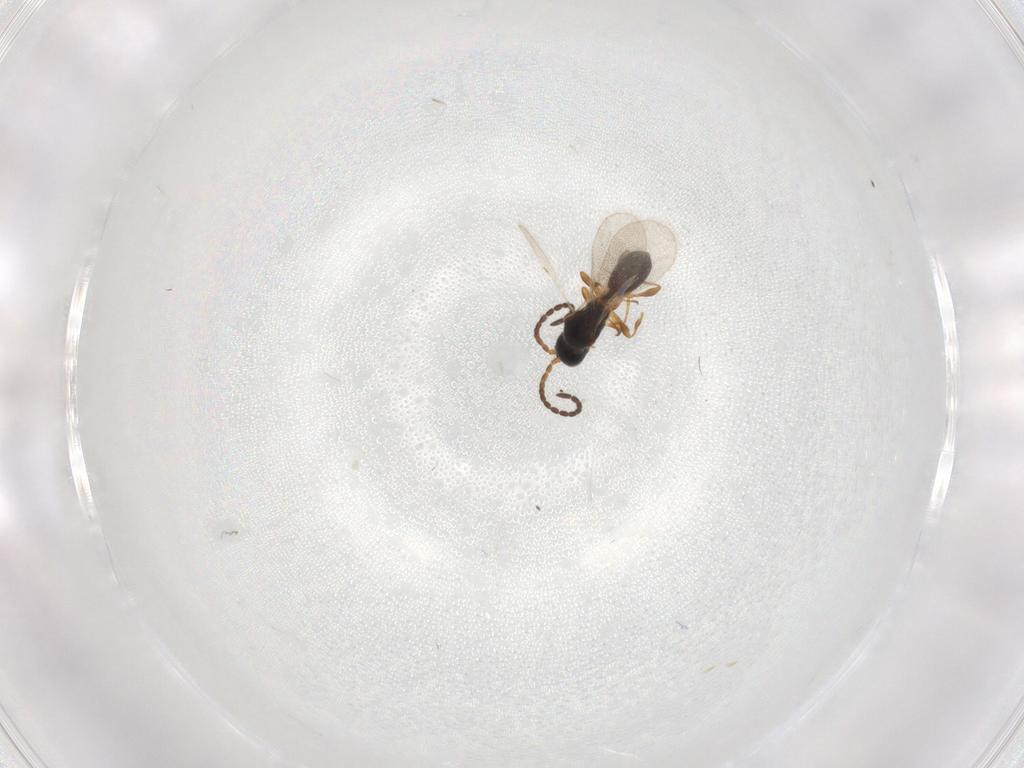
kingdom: Animalia
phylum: Arthropoda
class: Insecta
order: Hymenoptera
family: Diapriidae
